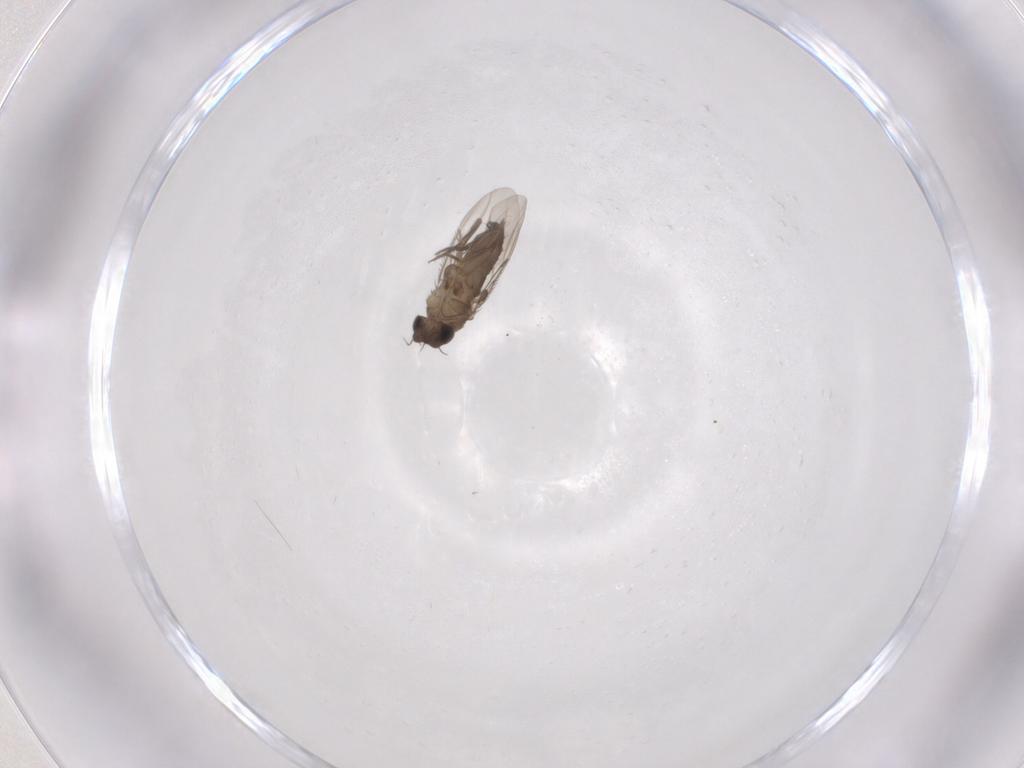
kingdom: Animalia
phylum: Arthropoda
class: Insecta
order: Diptera
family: Phoridae
